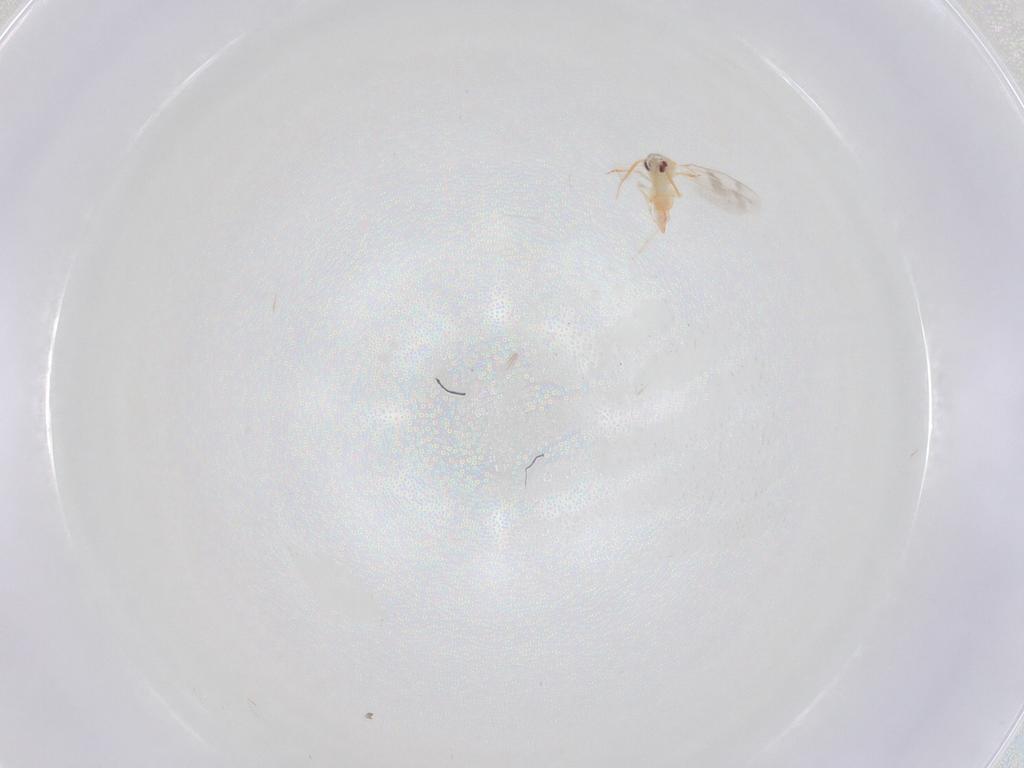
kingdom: Animalia
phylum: Arthropoda
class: Insecta
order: Hemiptera
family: Aleyrodidae
